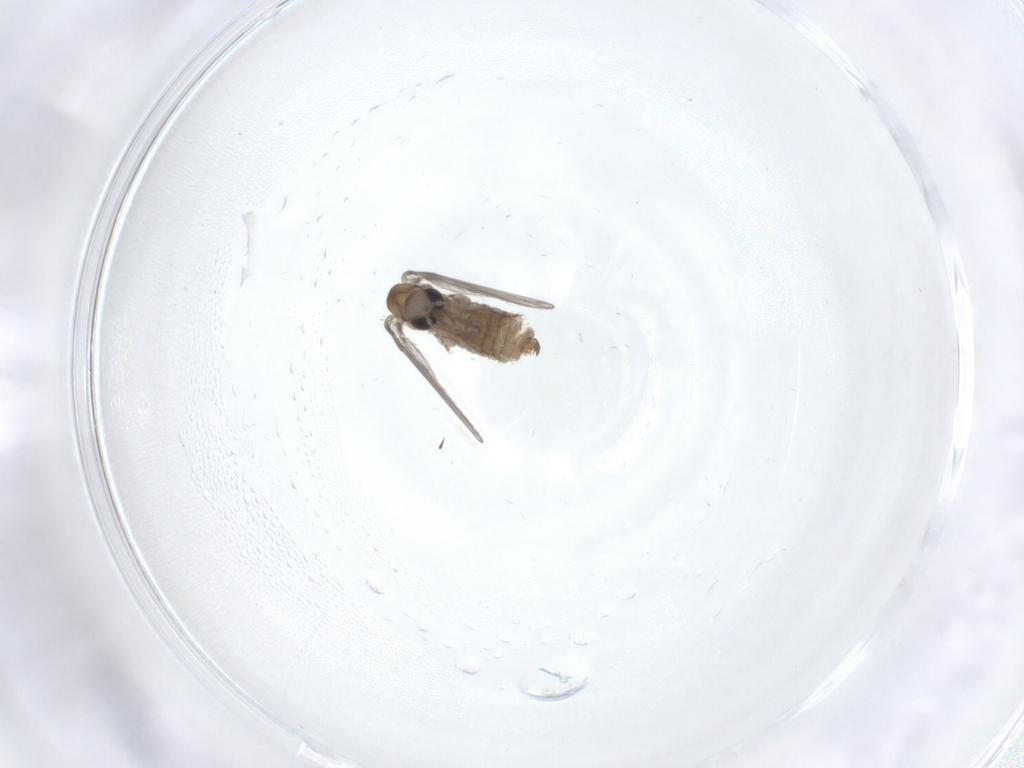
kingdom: Animalia
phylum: Arthropoda
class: Insecta
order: Diptera
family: Psychodidae
